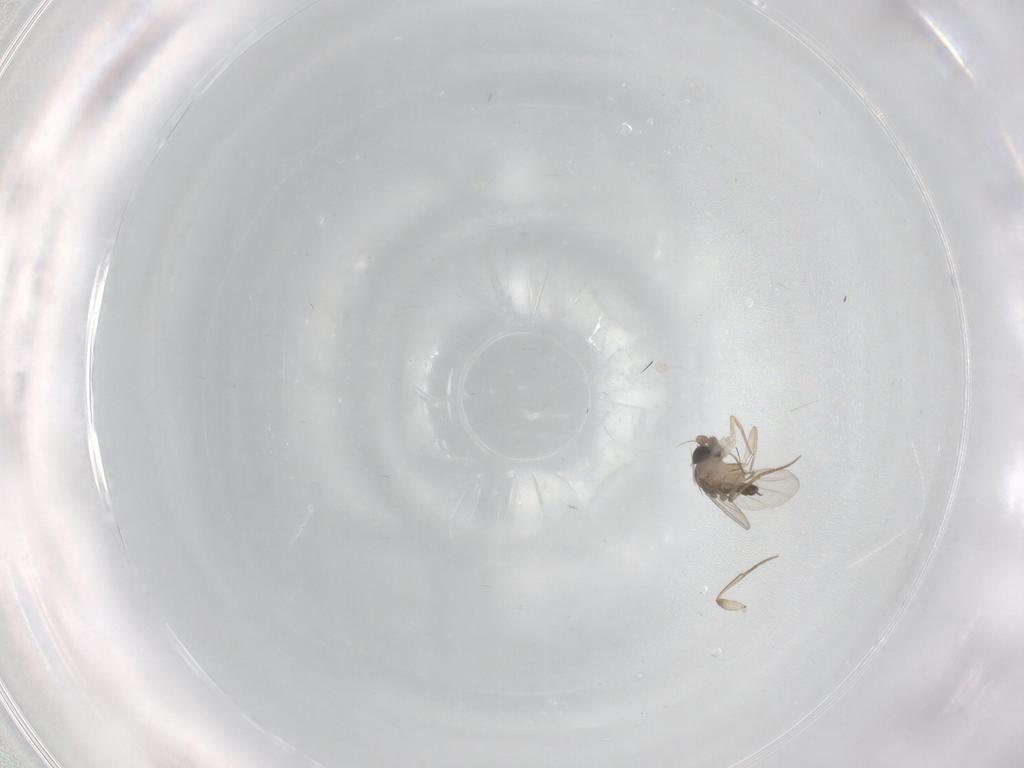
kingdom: Animalia
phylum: Arthropoda
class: Insecta
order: Diptera
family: Phoridae
